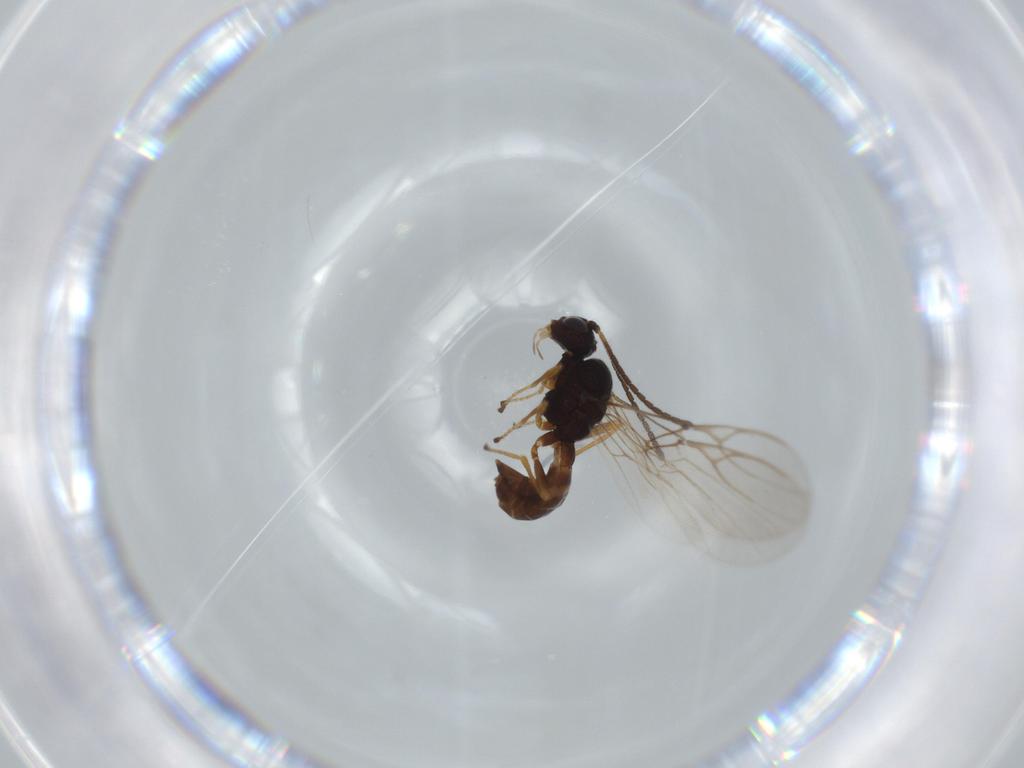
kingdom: Animalia
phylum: Arthropoda
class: Insecta
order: Hymenoptera
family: Braconidae
